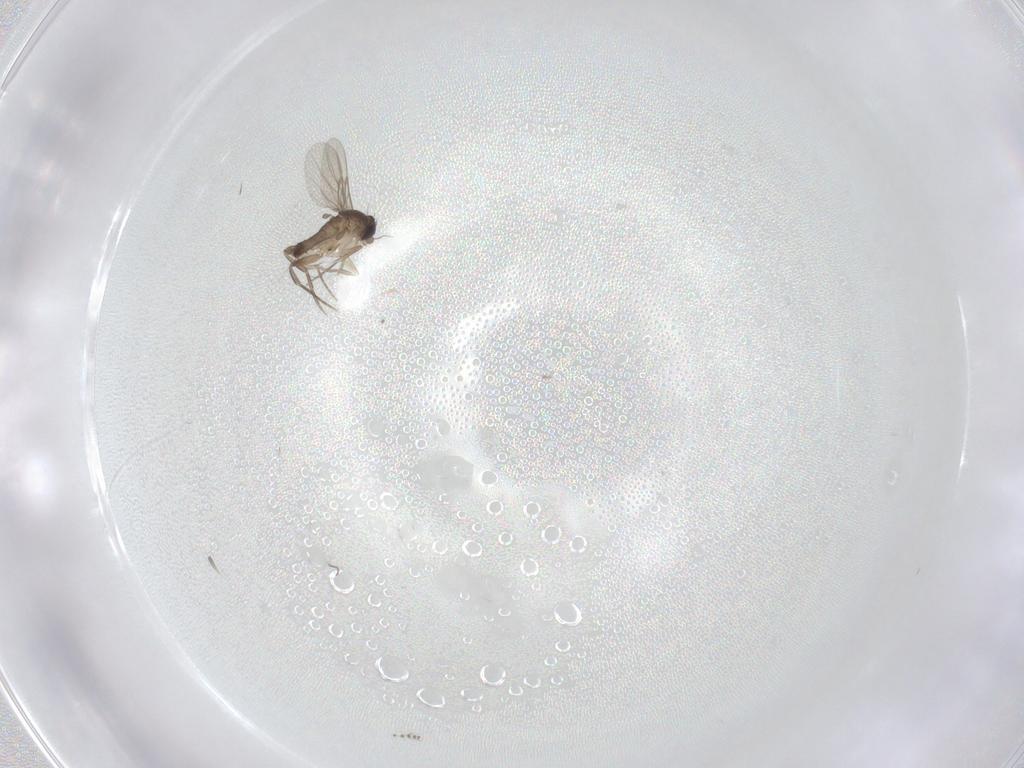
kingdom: Animalia
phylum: Arthropoda
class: Insecta
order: Diptera
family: Phoridae
